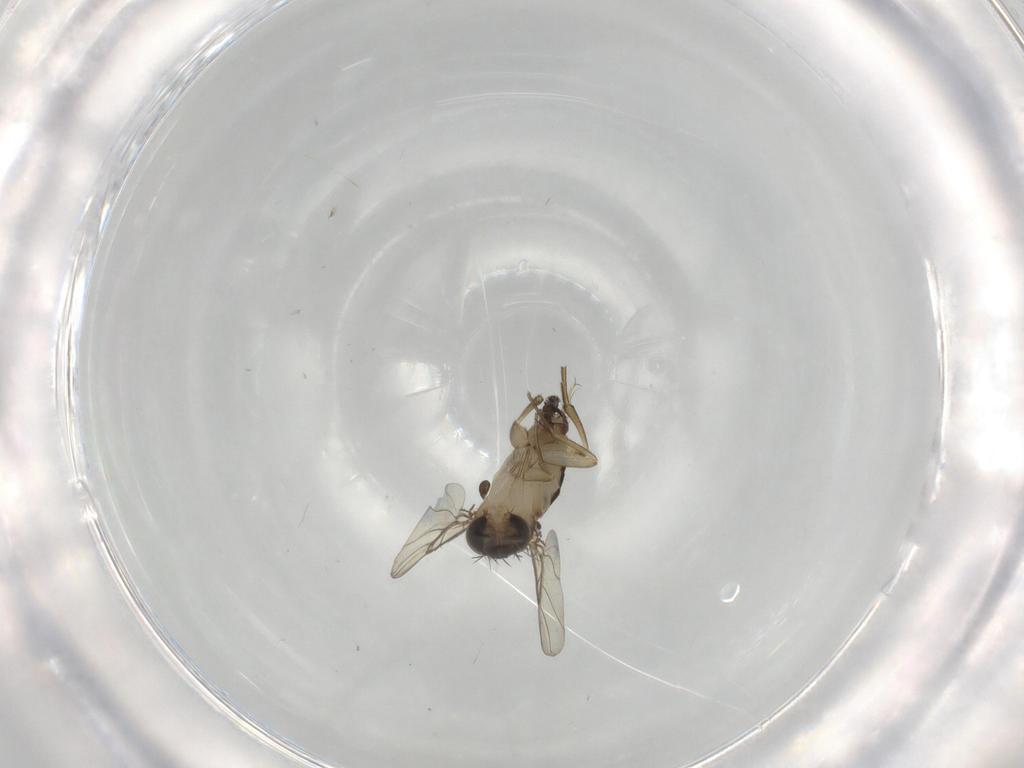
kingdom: Animalia
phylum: Arthropoda
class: Insecta
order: Diptera
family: Phoridae
